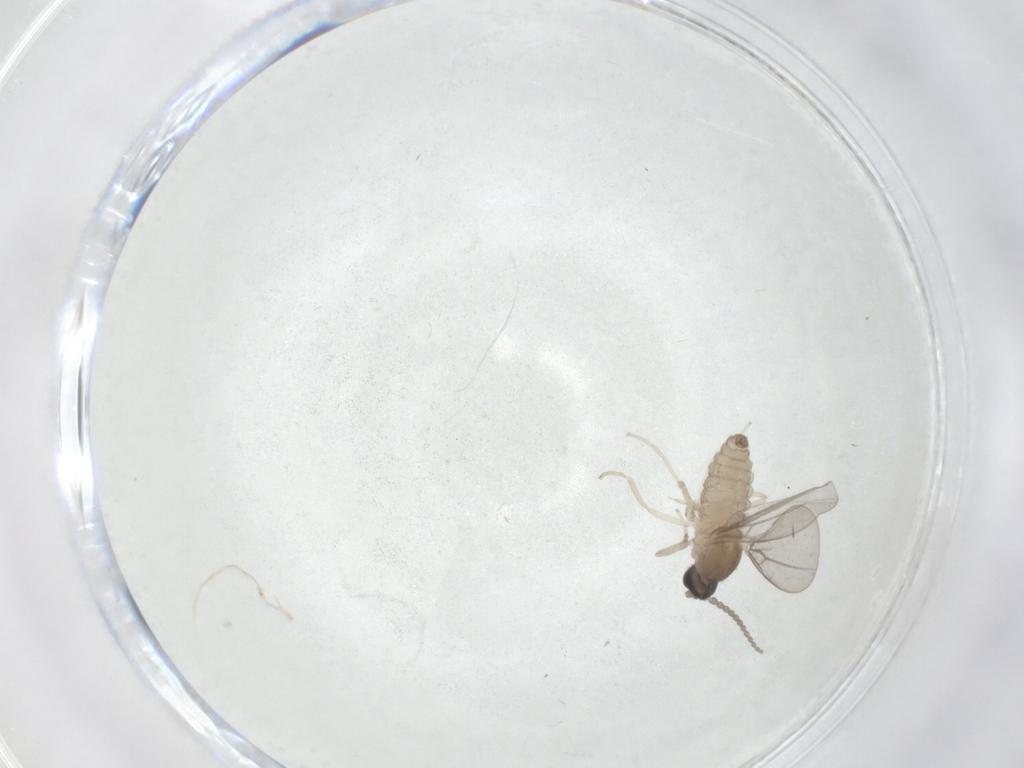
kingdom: Animalia
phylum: Arthropoda
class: Insecta
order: Diptera
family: Cecidomyiidae
